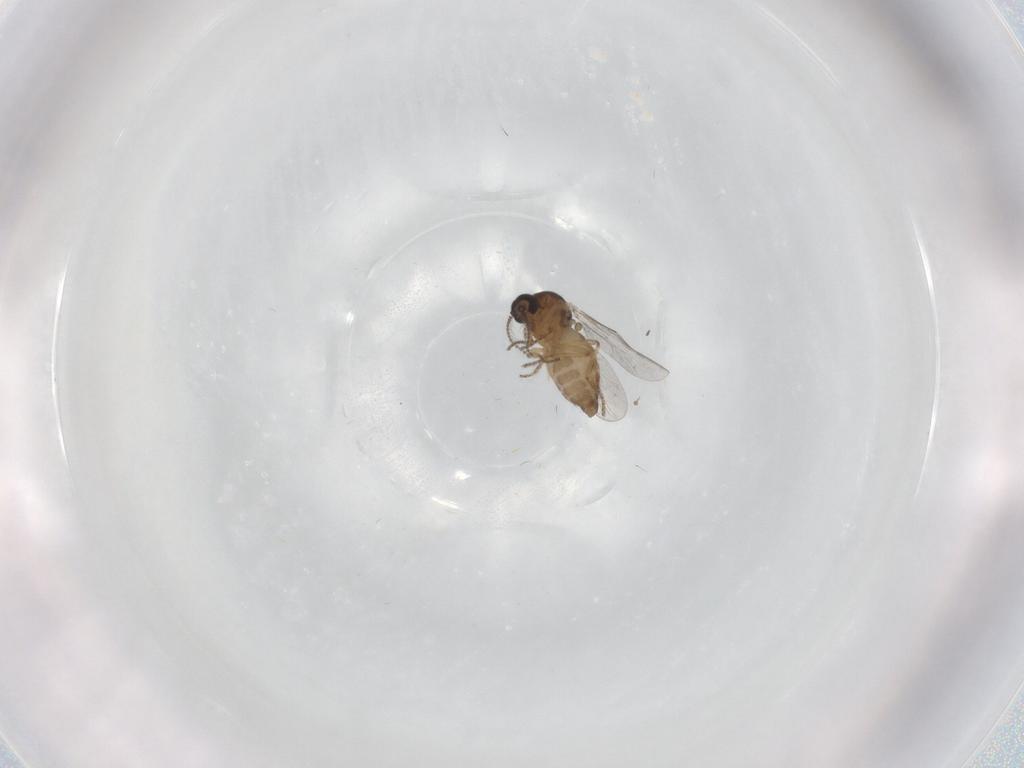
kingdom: Animalia
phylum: Arthropoda
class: Insecta
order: Diptera
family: Ceratopogonidae
